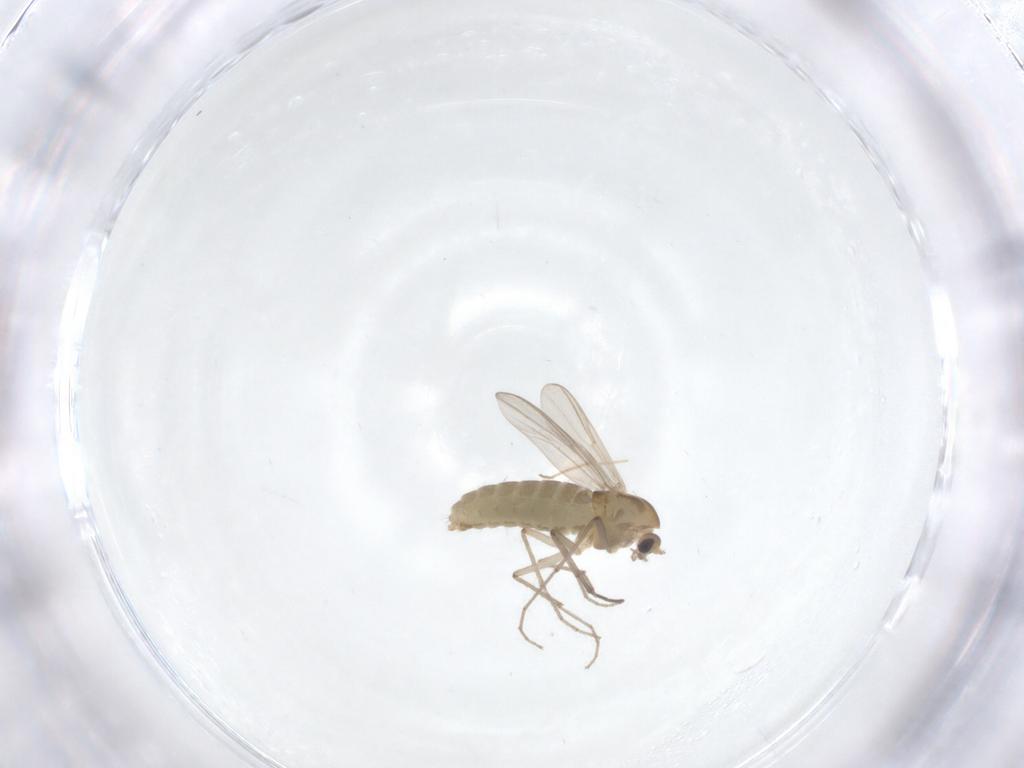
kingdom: Animalia
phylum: Arthropoda
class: Insecta
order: Diptera
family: Chironomidae
